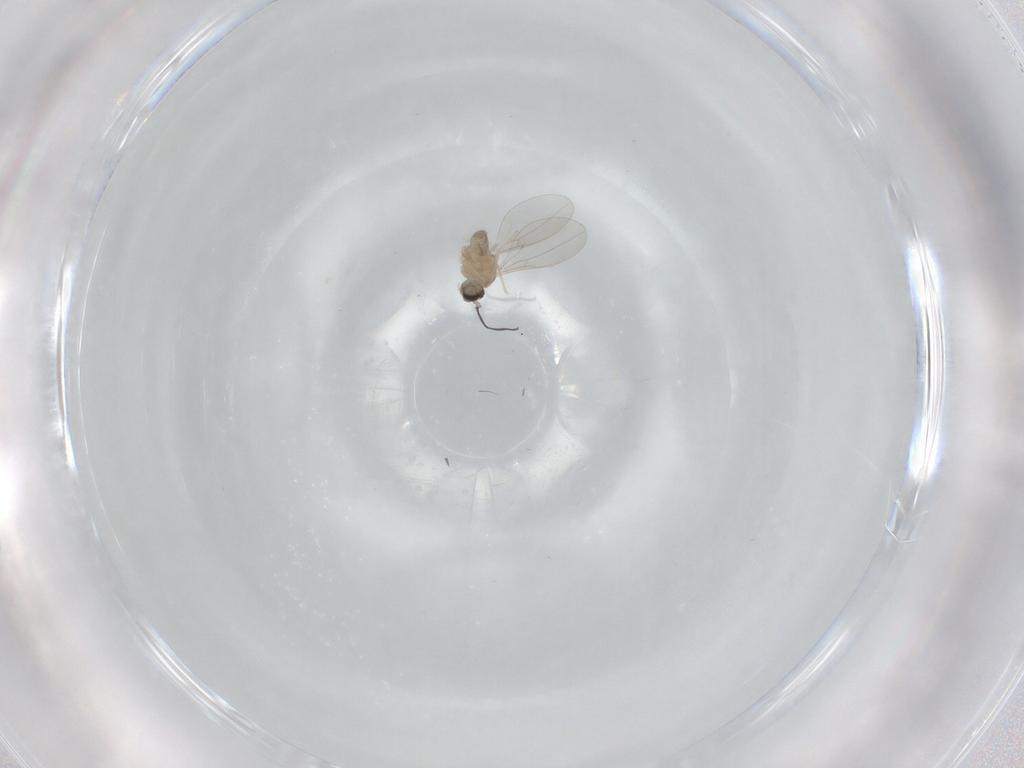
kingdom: Animalia
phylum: Arthropoda
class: Insecta
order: Diptera
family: Cecidomyiidae
